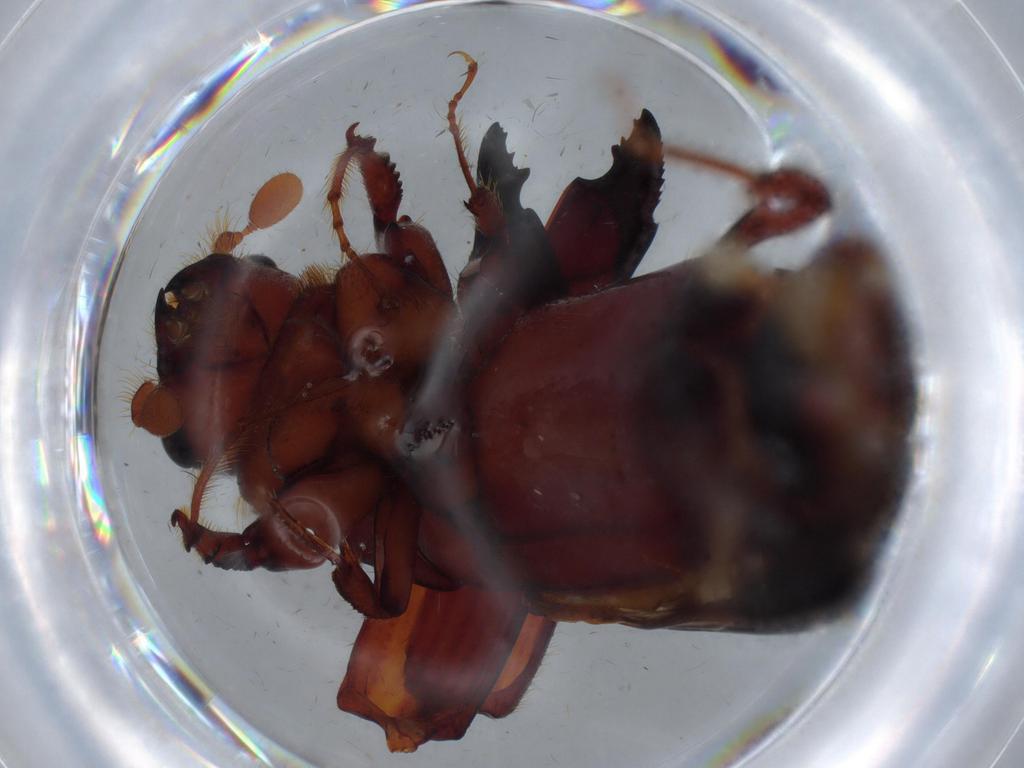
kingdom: Animalia
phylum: Arthropoda
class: Insecta
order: Coleoptera
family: Curculionidae
